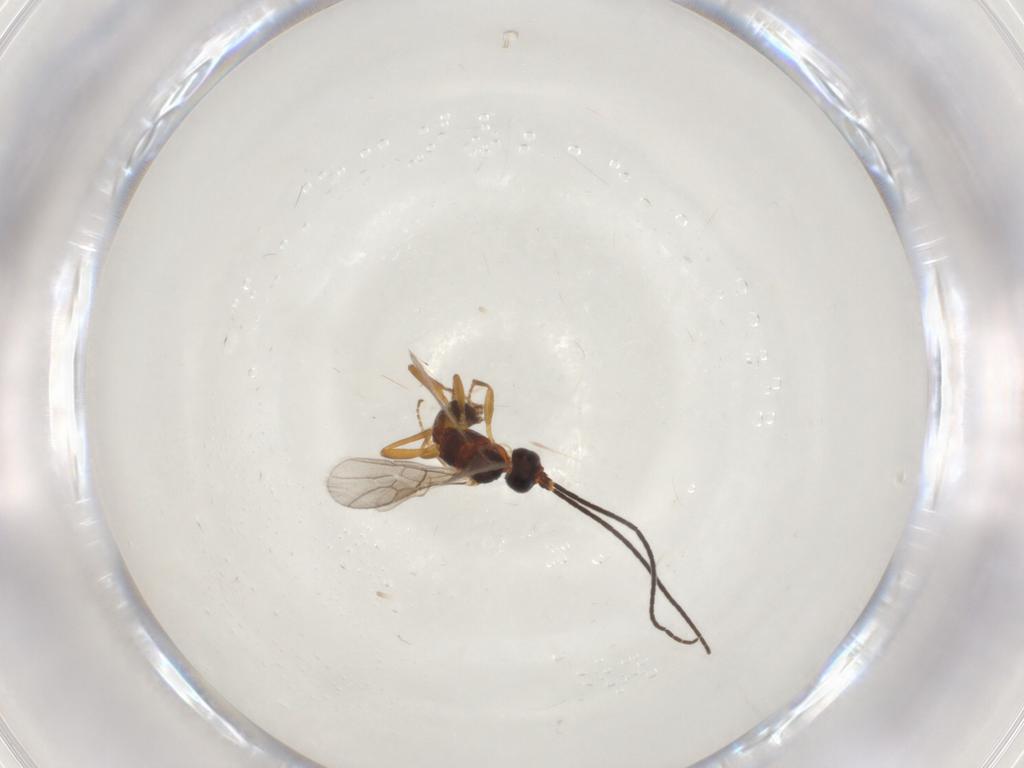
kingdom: Animalia
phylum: Arthropoda
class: Insecta
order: Hymenoptera
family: Braconidae
